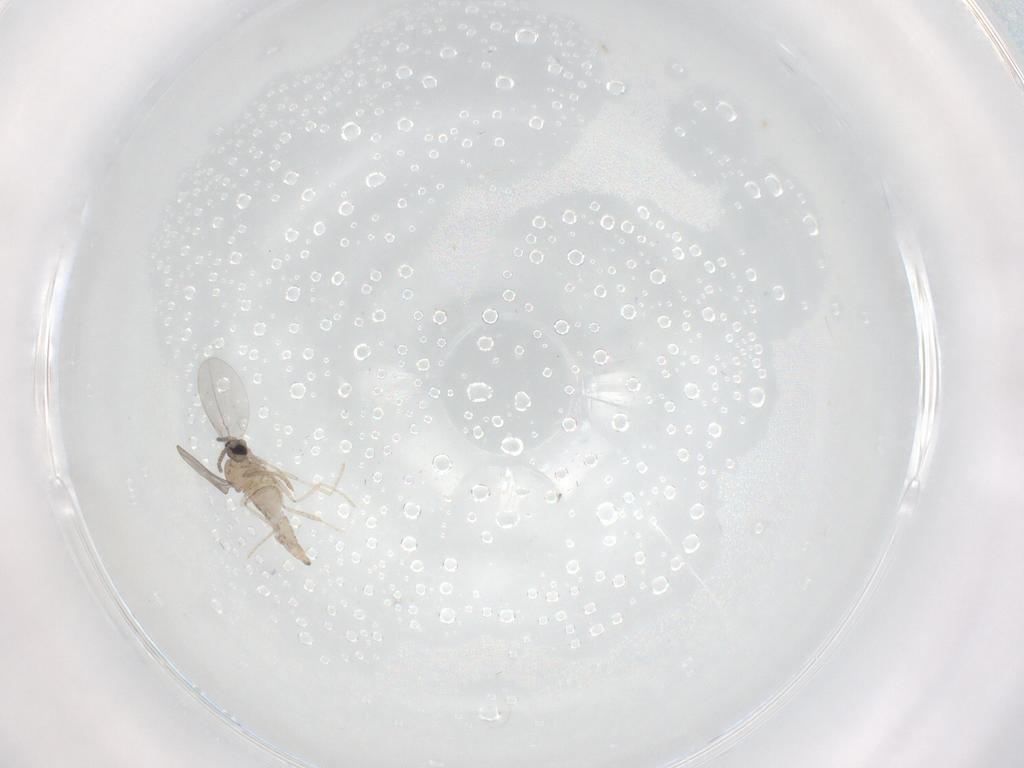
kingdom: Animalia
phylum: Arthropoda
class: Insecta
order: Diptera
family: Cecidomyiidae
